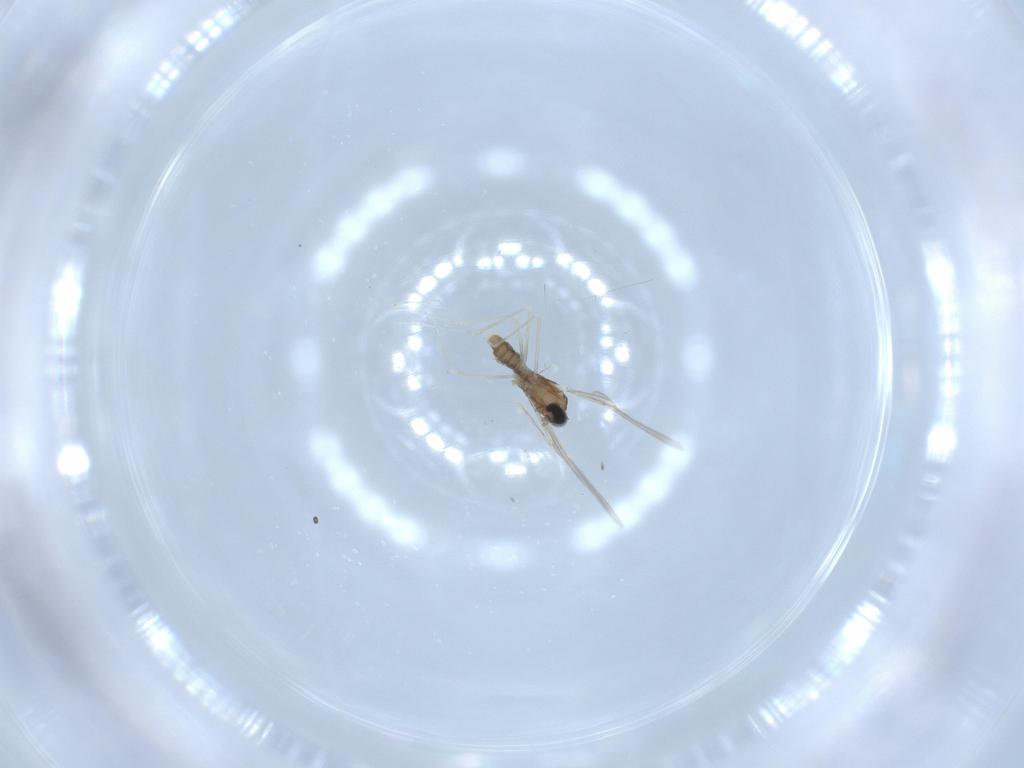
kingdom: Animalia
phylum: Arthropoda
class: Insecta
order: Diptera
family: Cecidomyiidae
